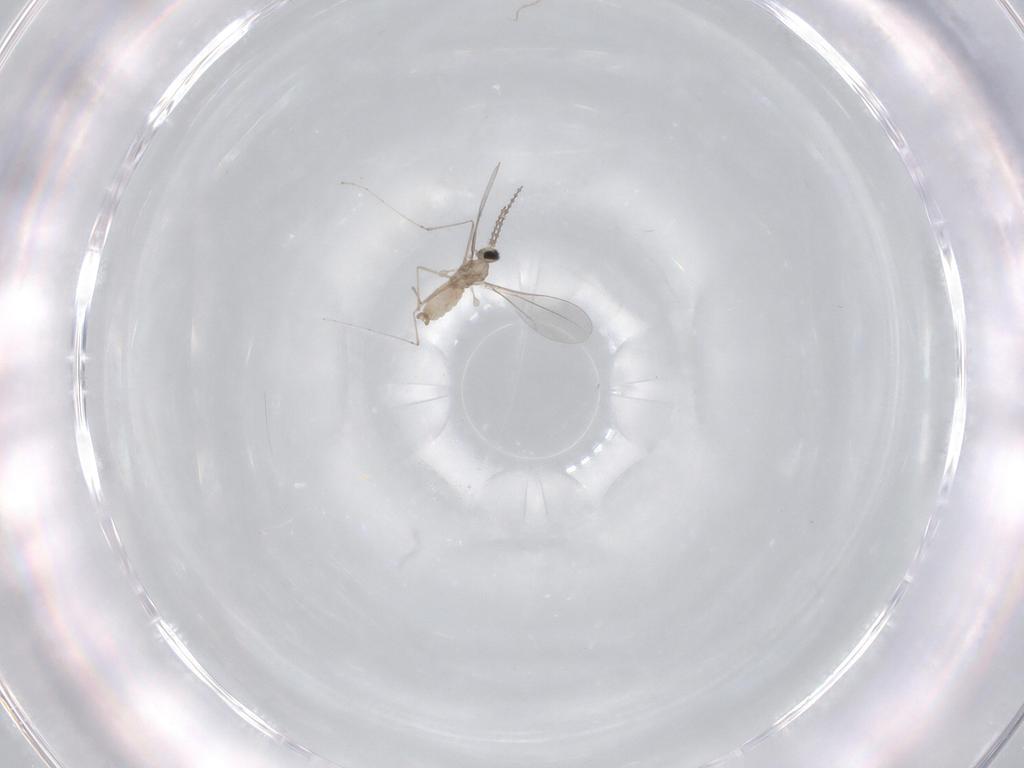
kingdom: Animalia
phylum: Arthropoda
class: Insecta
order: Diptera
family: Cecidomyiidae
